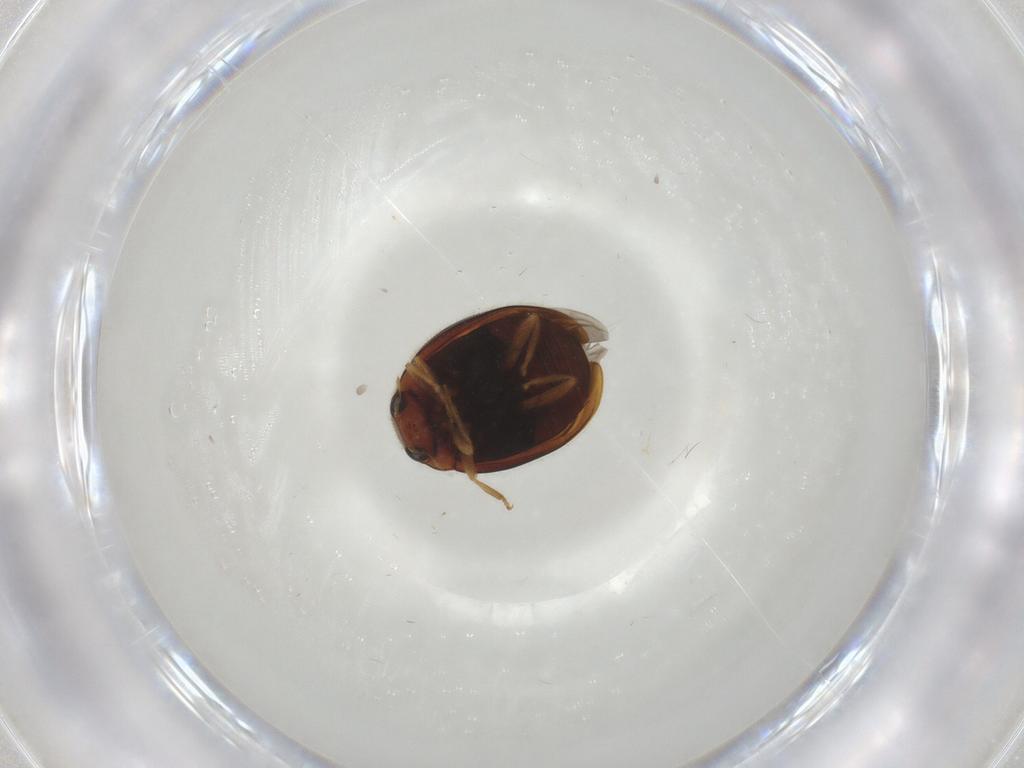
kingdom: Animalia
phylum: Arthropoda
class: Insecta
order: Coleoptera
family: Coccinellidae
